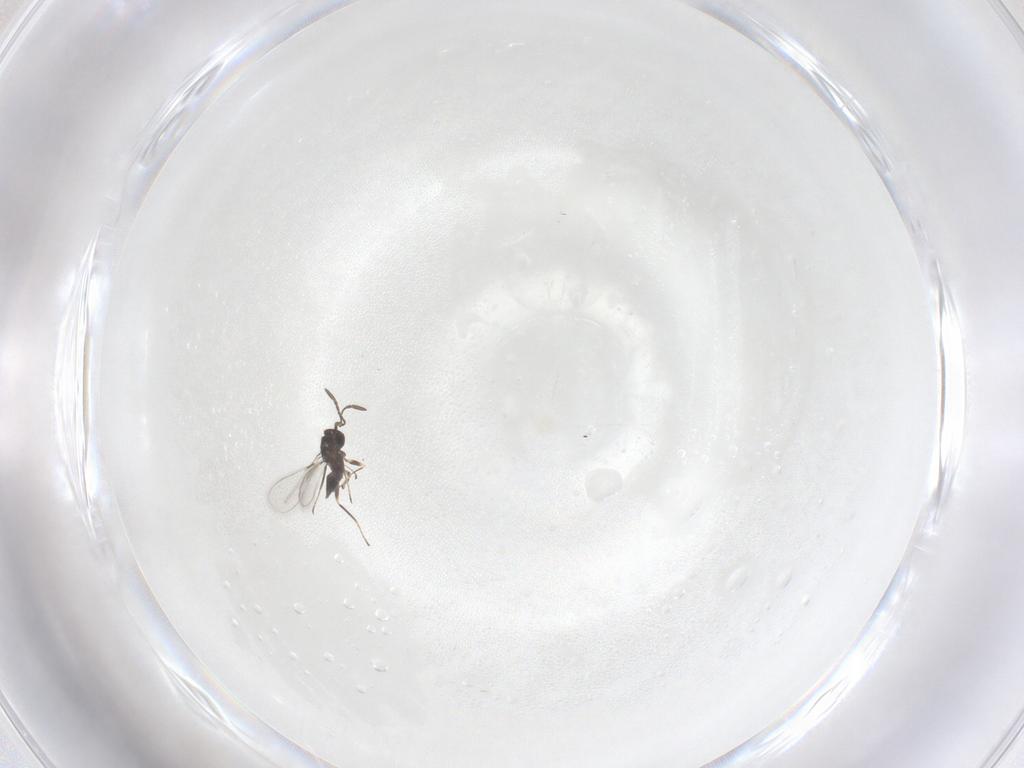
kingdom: Animalia
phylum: Arthropoda
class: Insecta
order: Hymenoptera
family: Mymaridae
